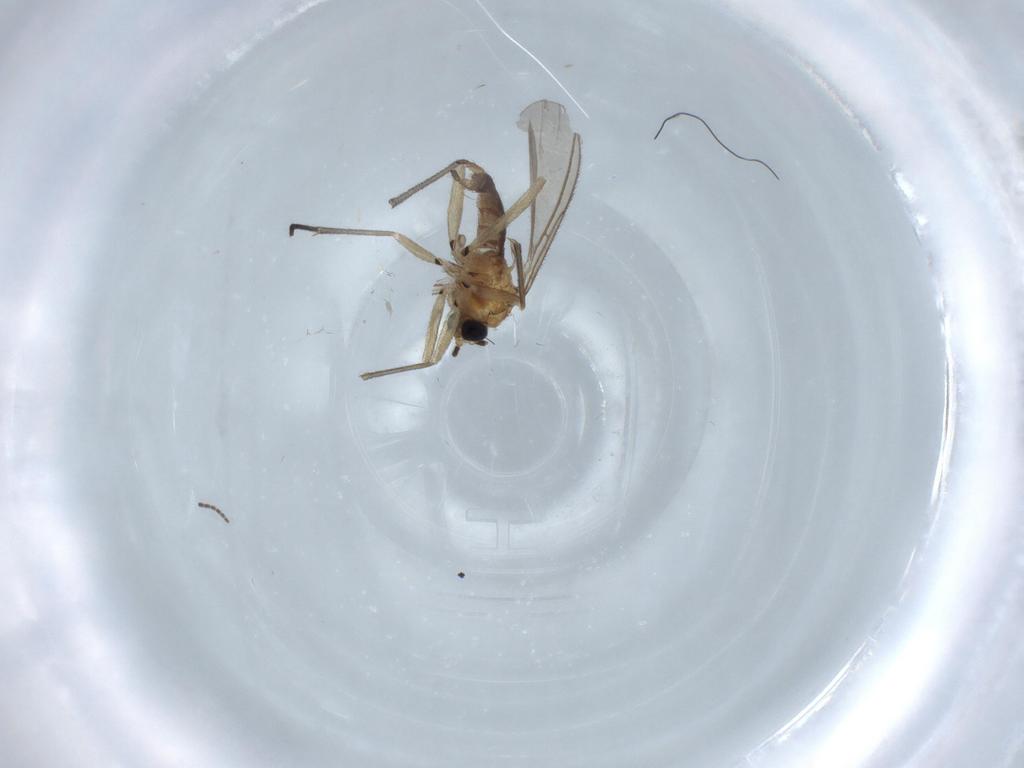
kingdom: Animalia
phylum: Arthropoda
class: Insecta
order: Diptera
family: Sciaridae
